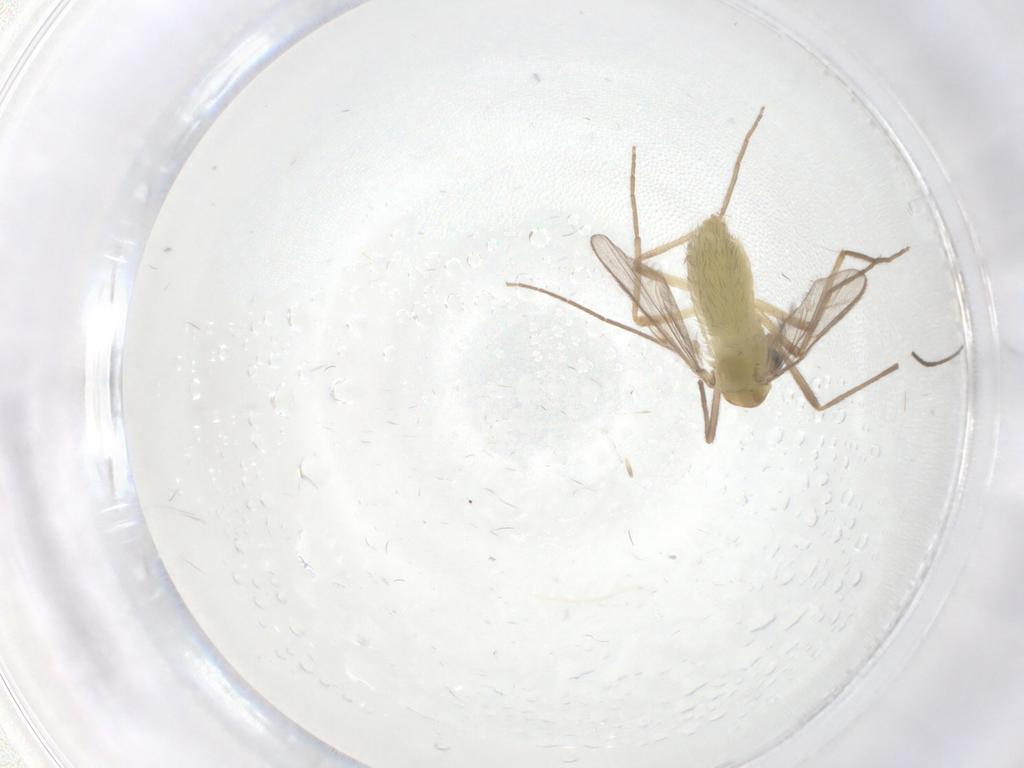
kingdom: Animalia
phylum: Arthropoda
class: Insecta
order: Diptera
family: Chironomidae
